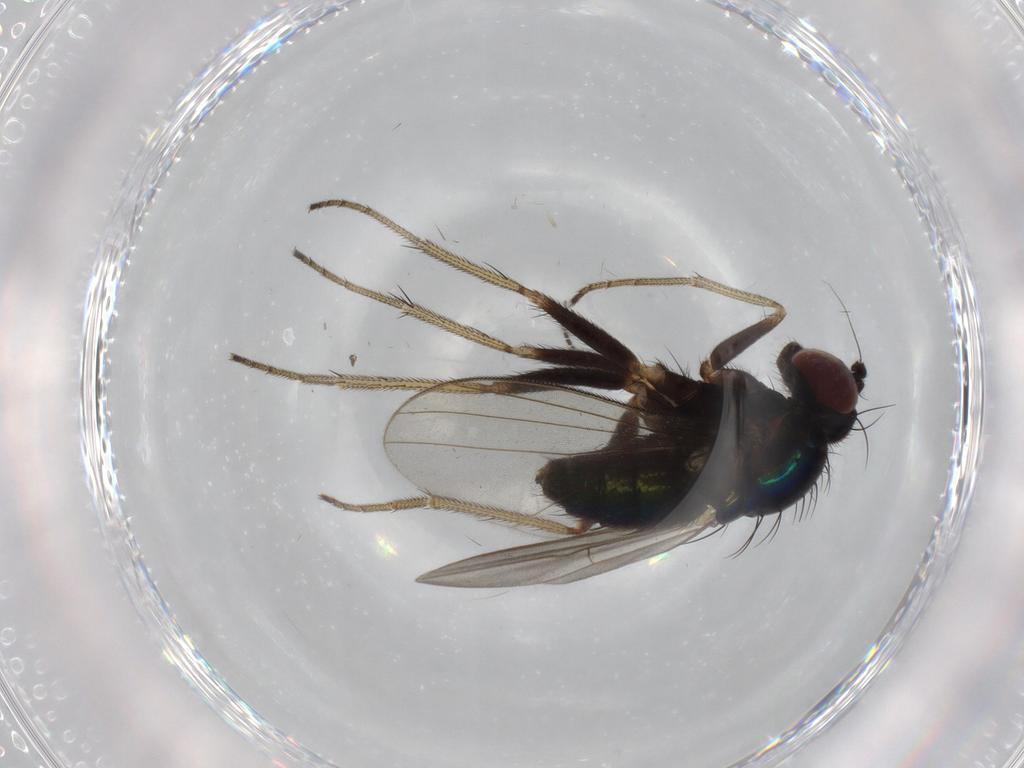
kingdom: Animalia
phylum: Arthropoda
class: Insecta
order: Diptera
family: Dolichopodidae
